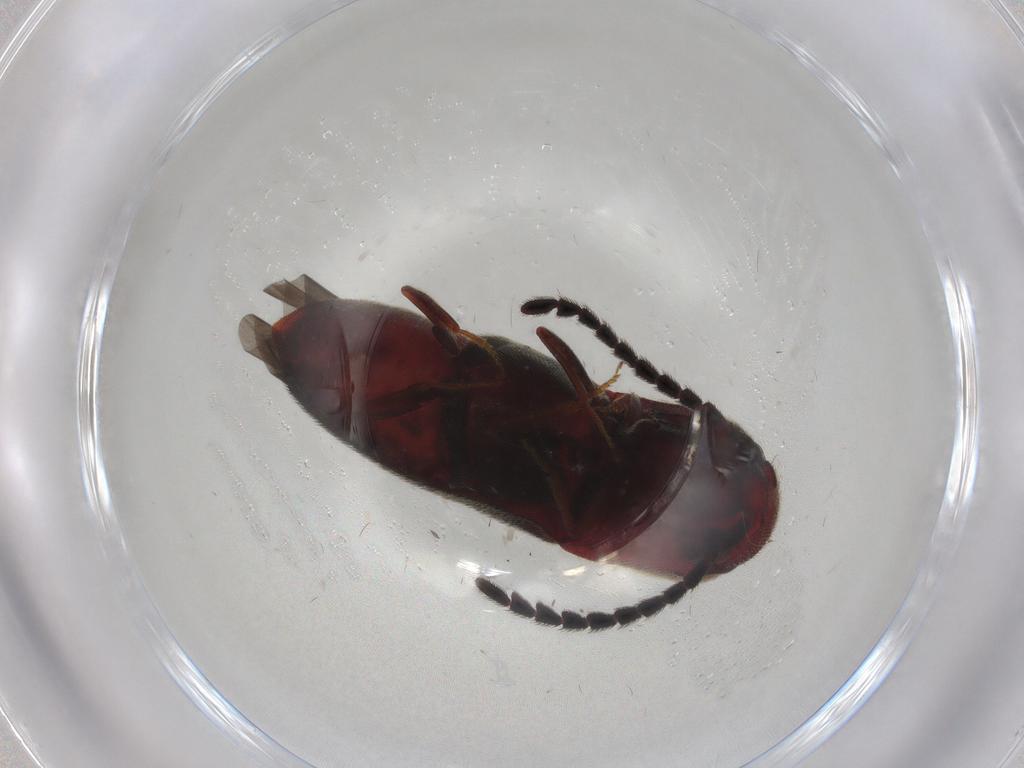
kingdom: Animalia
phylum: Arthropoda
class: Insecta
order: Coleoptera
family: Eucnemidae
